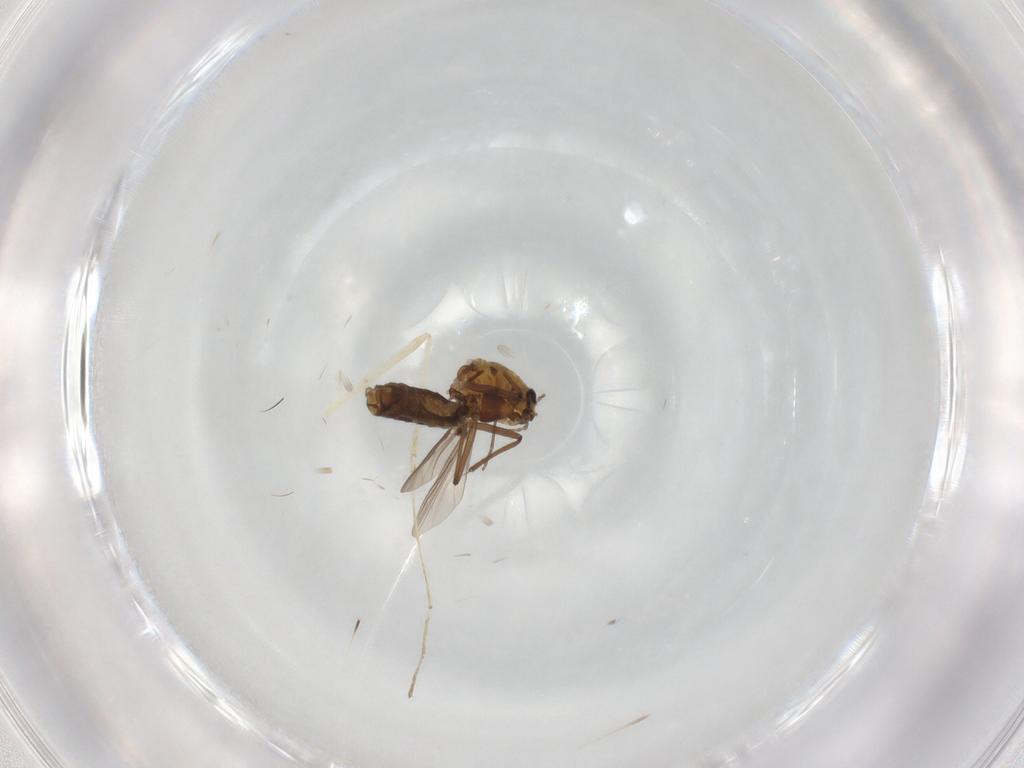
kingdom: Animalia
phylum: Arthropoda
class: Insecta
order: Diptera
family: Chironomidae
